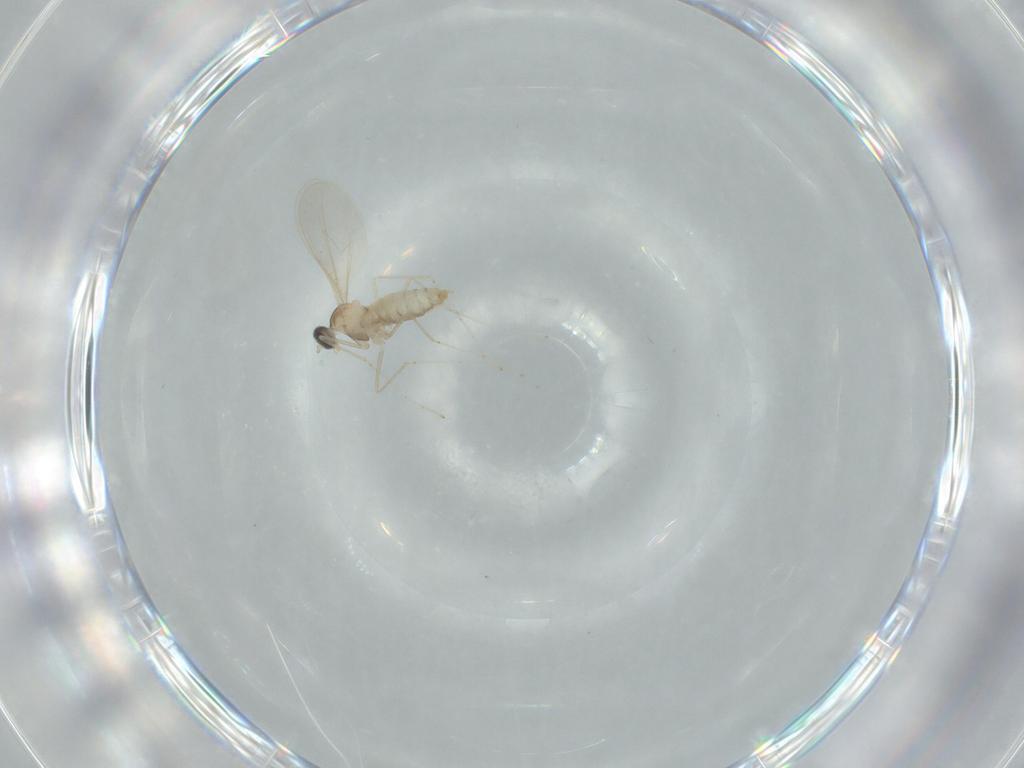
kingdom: Animalia
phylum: Arthropoda
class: Insecta
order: Diptera
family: Cecidomyiidae
